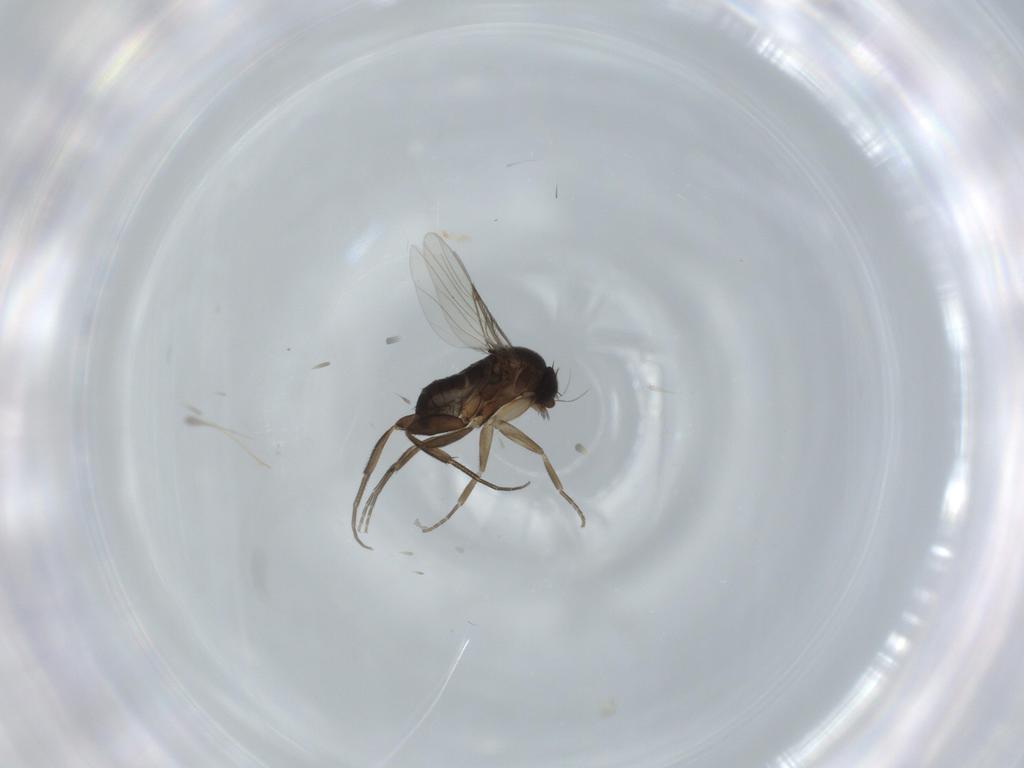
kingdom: Animalia
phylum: Arthropoda
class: Insecta
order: Diptera
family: Phoridae
